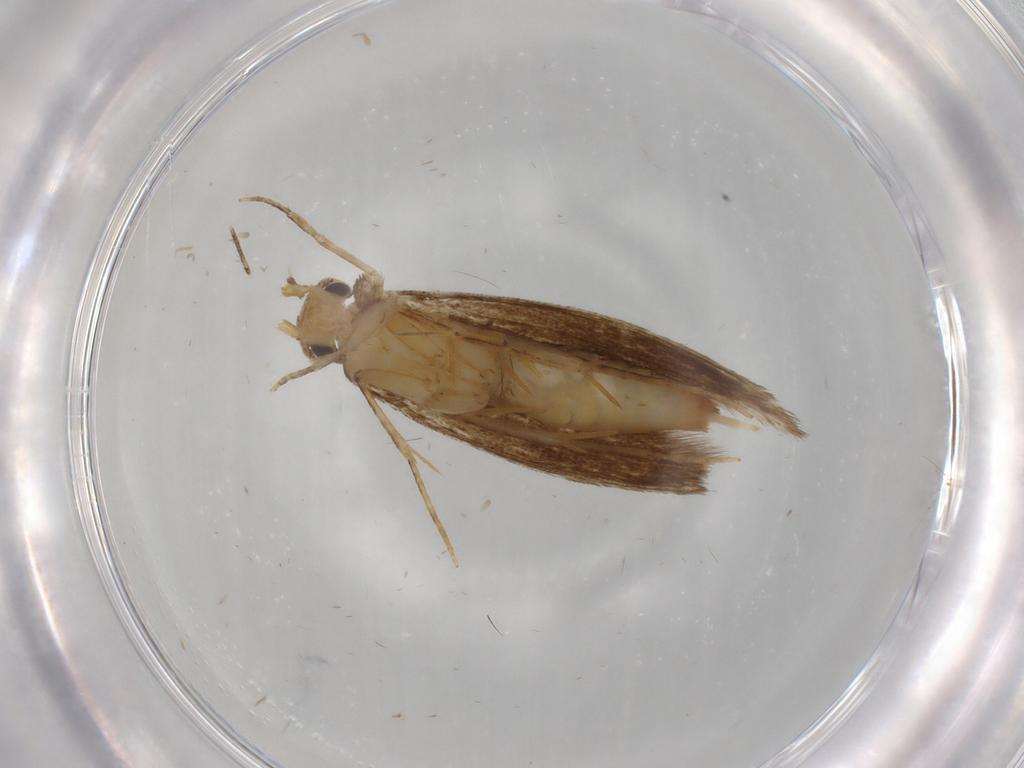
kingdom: Animalia
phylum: Arthropoda
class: Insecta
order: Lepidoptera
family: Tineidae
